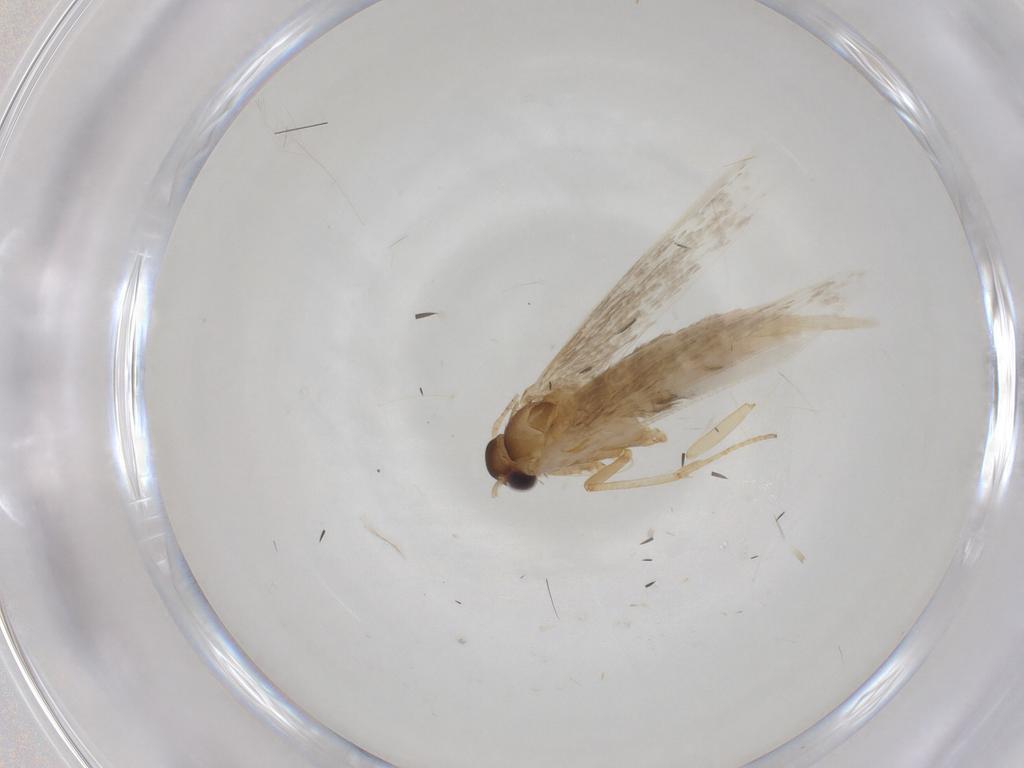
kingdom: Animalia
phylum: Arthropoda
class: Insecta
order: Lepidoptera
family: Blastobasidae
